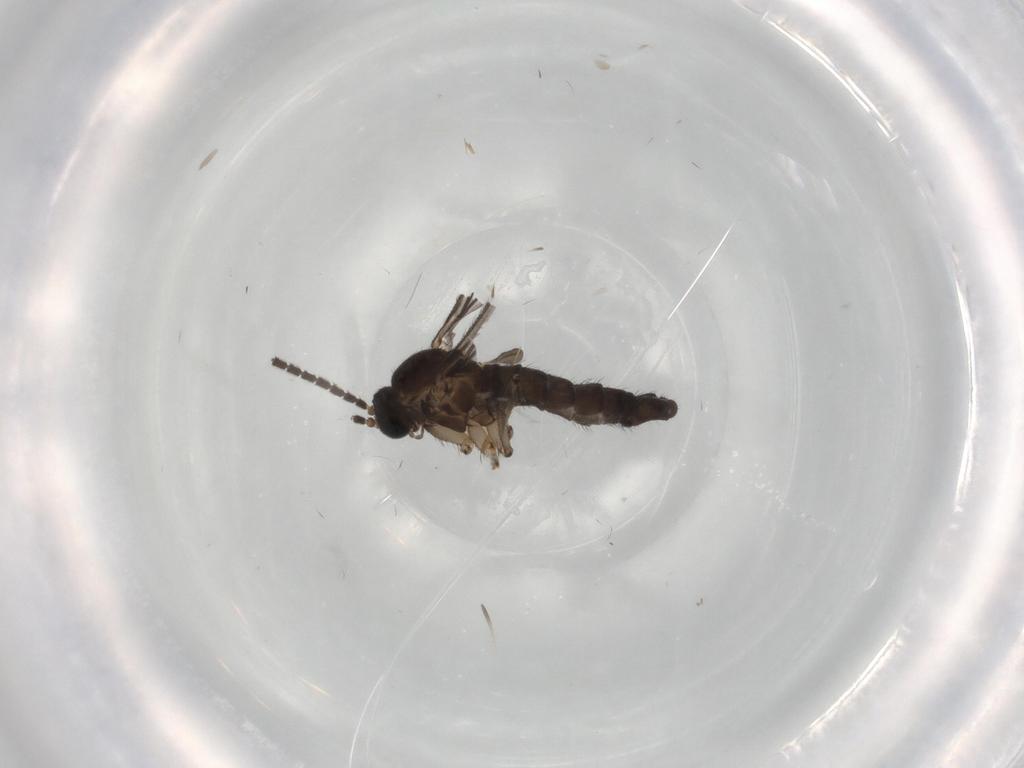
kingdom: Animalia
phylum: Arthropoda
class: Insecta
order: Diptera
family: Sciaridae
